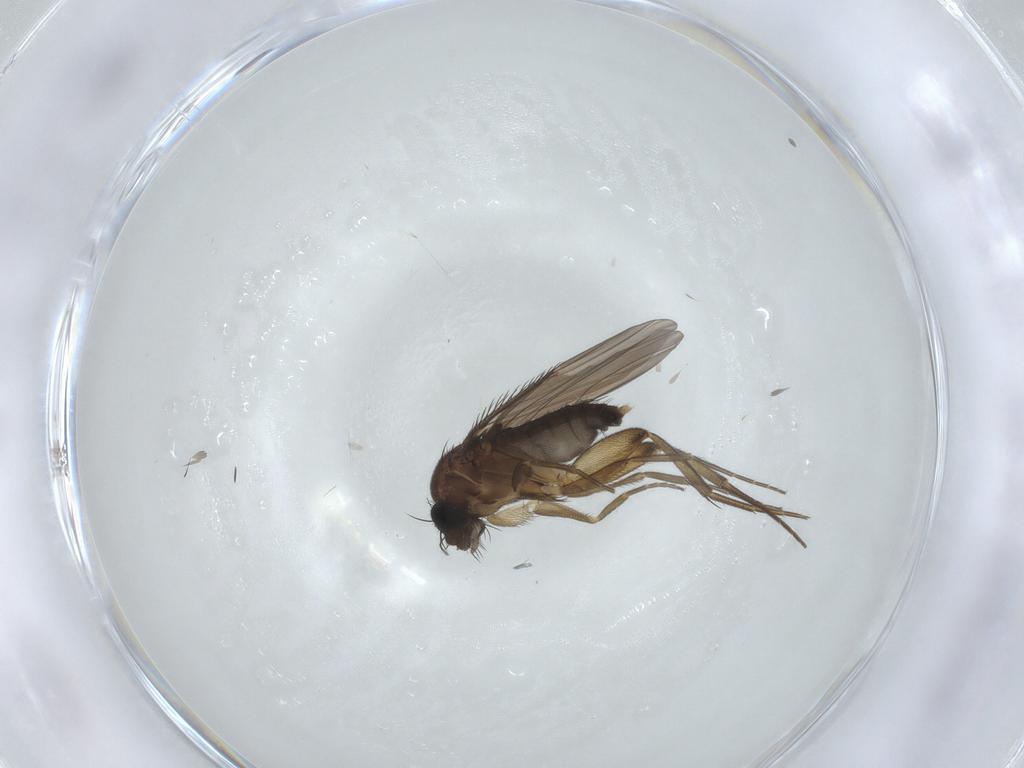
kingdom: Animalia
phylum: Arthropoda
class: Insecta
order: Diptera
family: Phoridae
